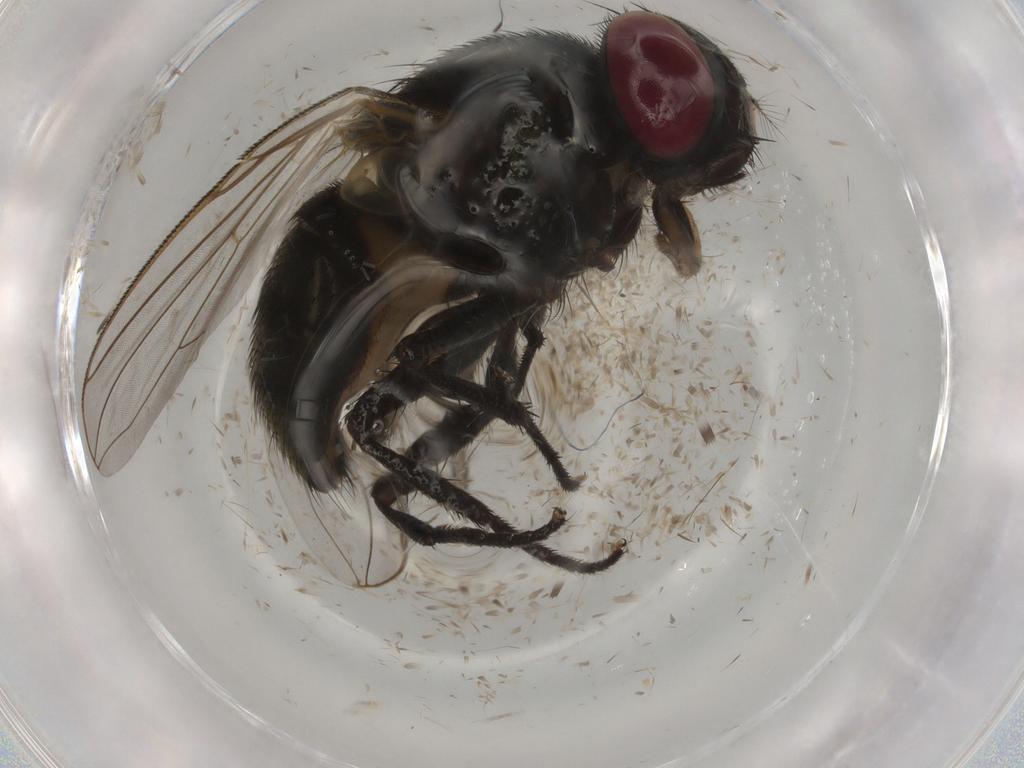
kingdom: Animalia
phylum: Arthropoda
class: Insecta
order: Diptera
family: Muscidae
